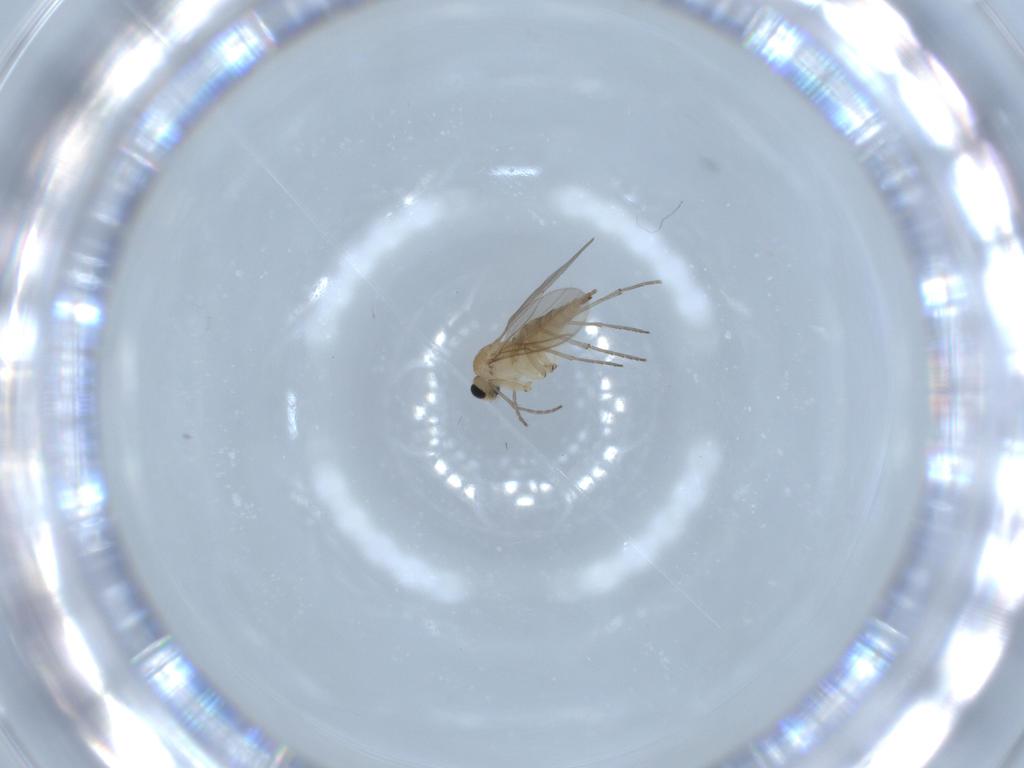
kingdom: Animalia
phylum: Arthropoda
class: Insecta
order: Diptera
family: Sciaridae
